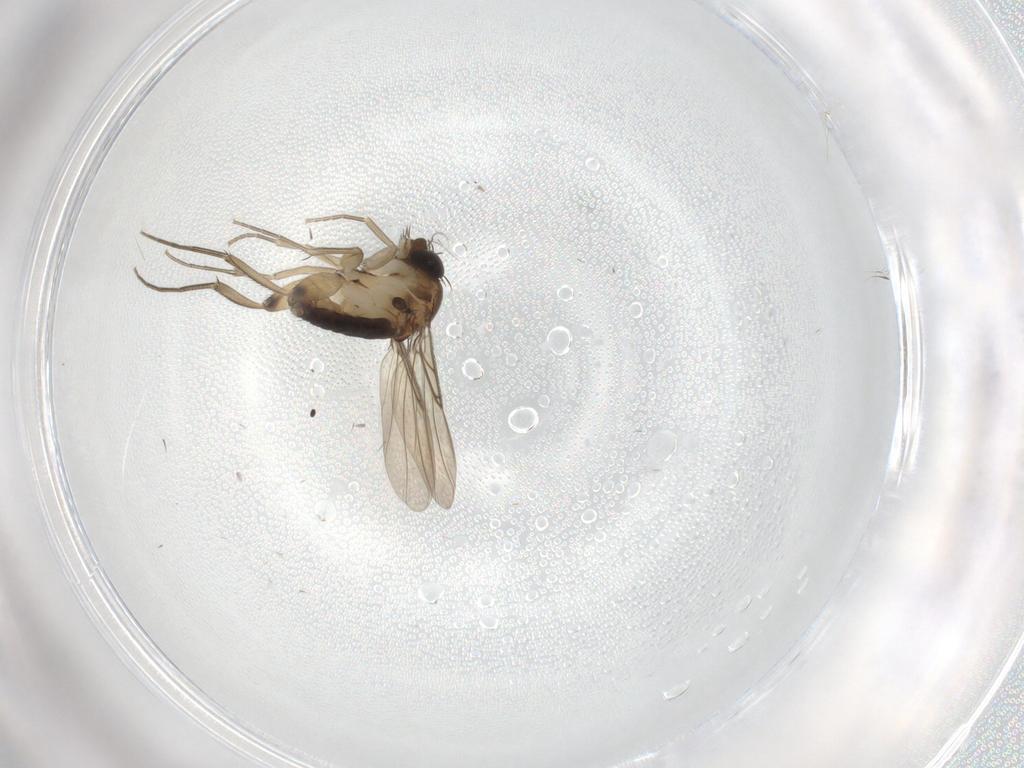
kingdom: Animalia
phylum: Arthropoda
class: Insecta
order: Diptera
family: Phoridae
